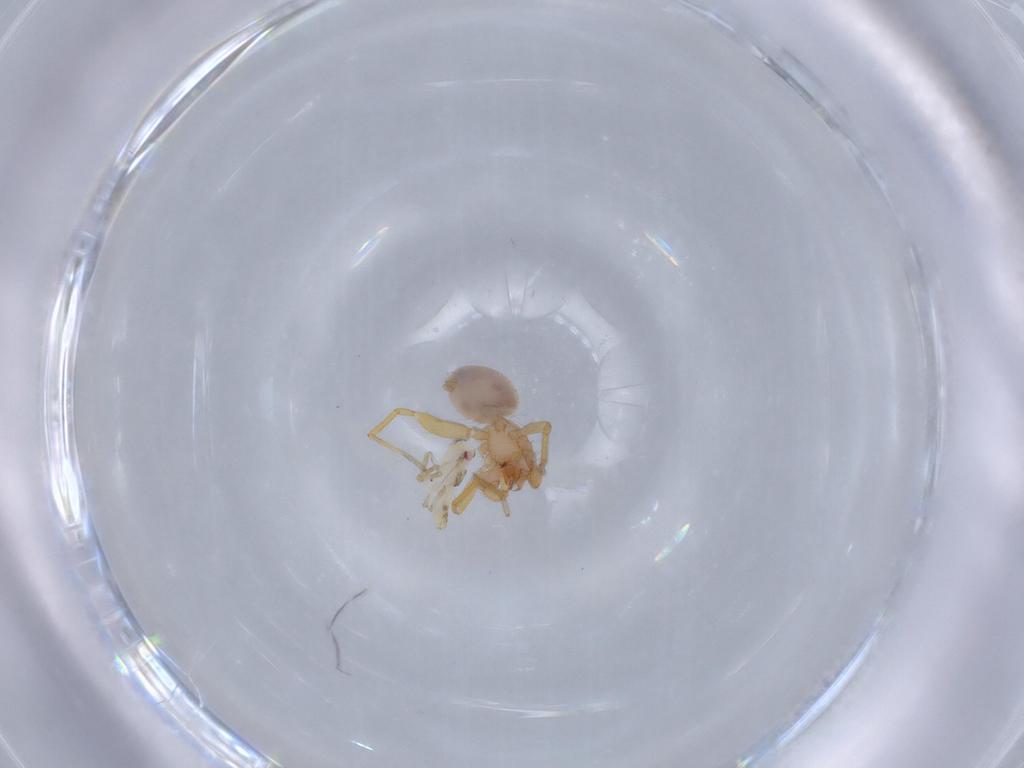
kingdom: Animalia
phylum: Arthropoda
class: Arachnida
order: Araneae
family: Oonopidae
